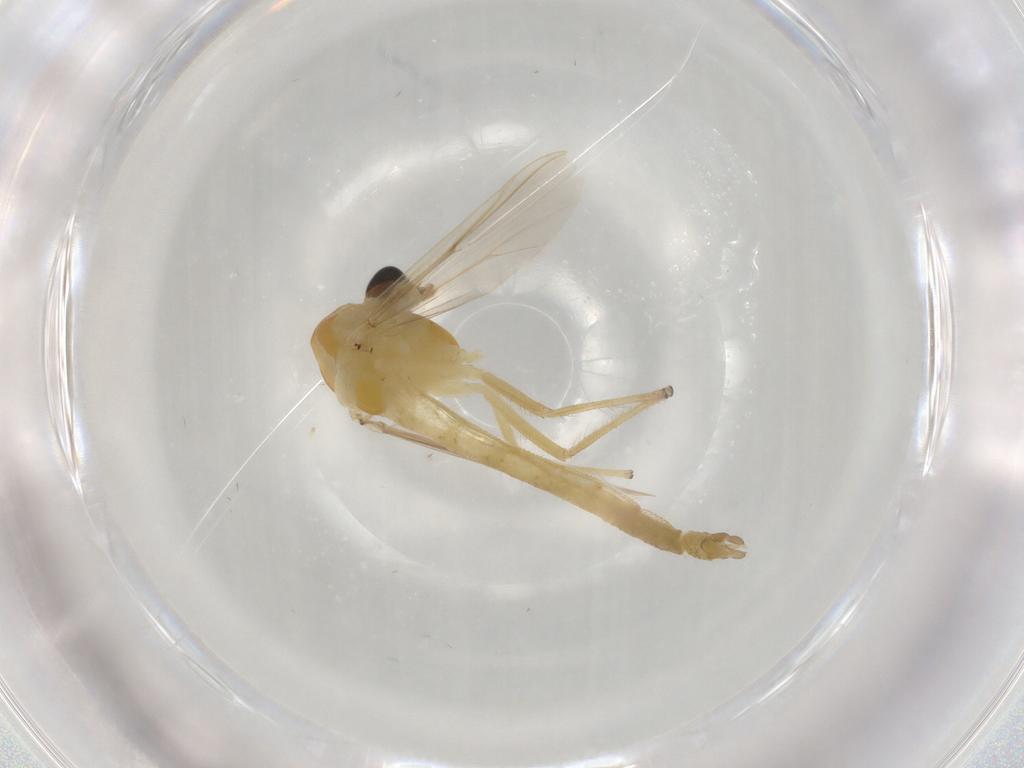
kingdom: Animalia
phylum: Arthropoda
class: Insecta
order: Diptera
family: Chironomidae
